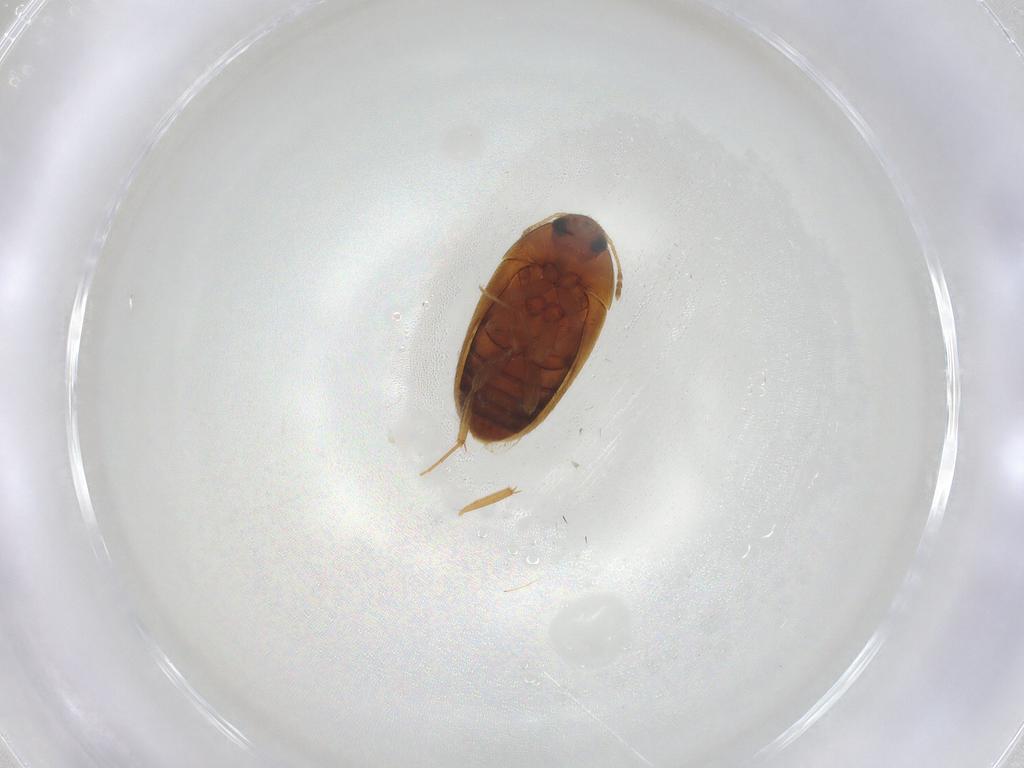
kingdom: Animalia
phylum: Arthropoda
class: Insecta
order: Coleoptera
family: Mycetophagidae
